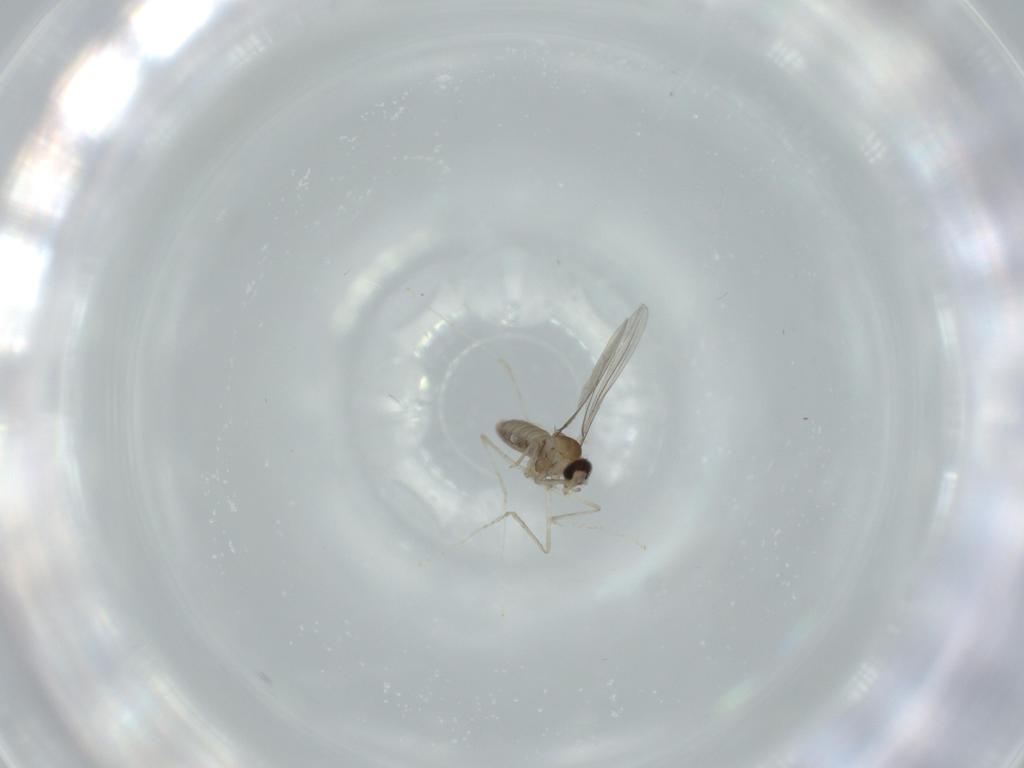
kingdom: Animalia
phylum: Arthropoda
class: Insecta
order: Diptera
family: Cecidomyiidae
